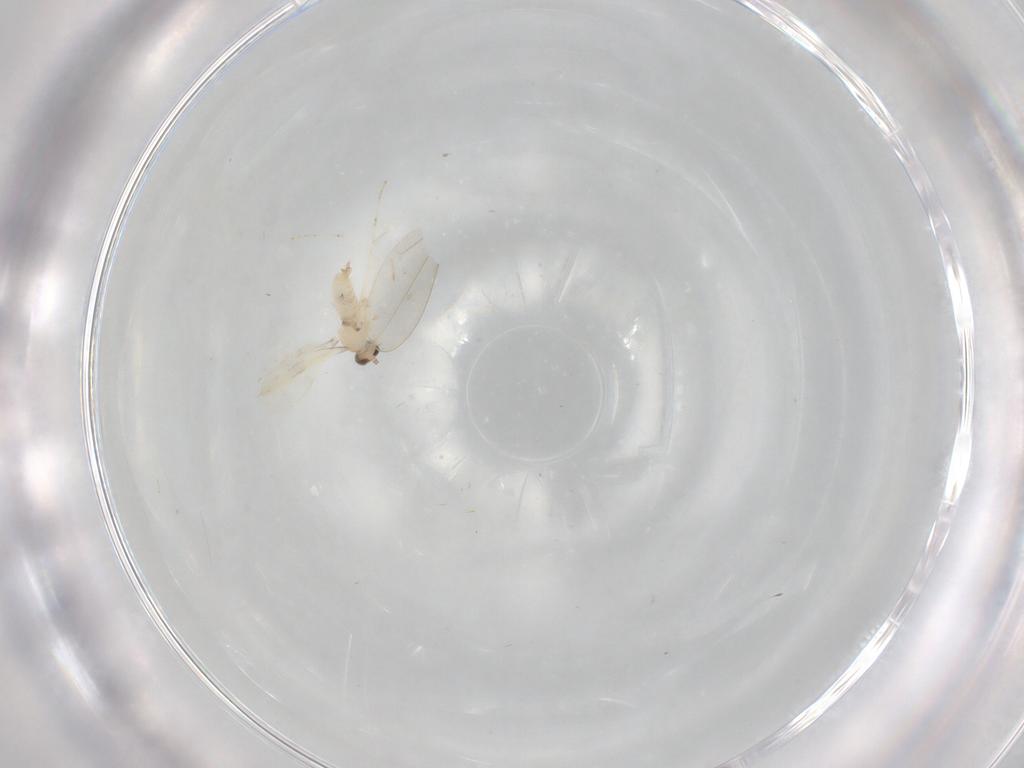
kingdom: Animalia
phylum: Arthropoda
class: Insecta
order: Diptera
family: Cecidomyiidae
